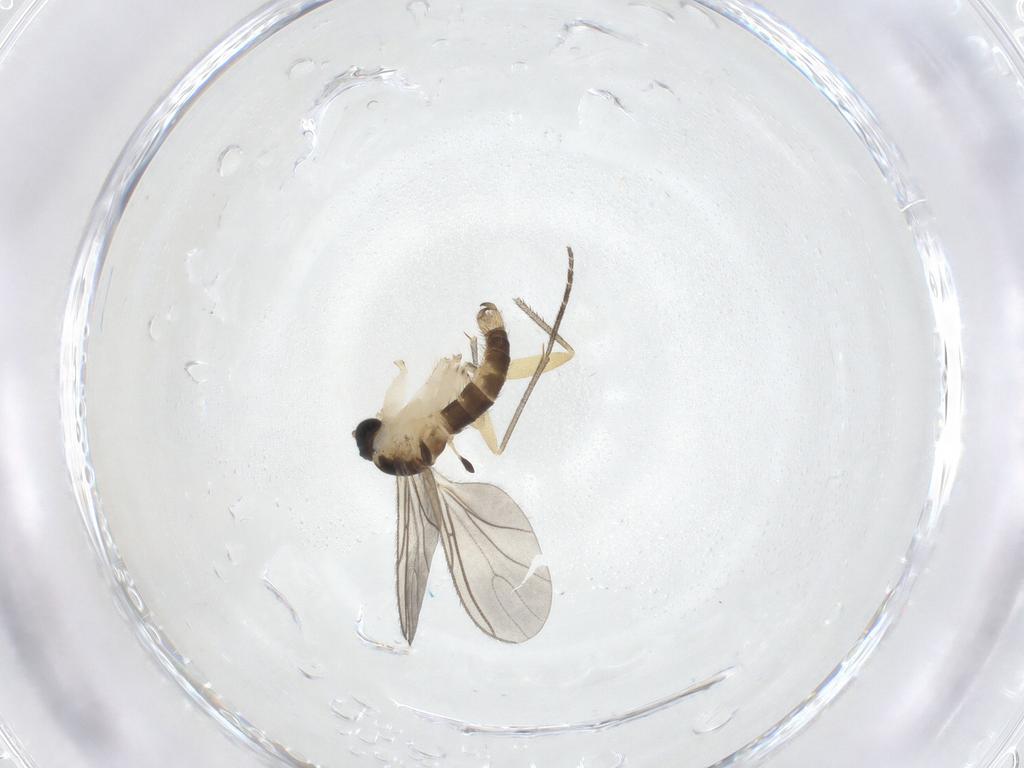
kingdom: Animalia
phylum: Arthropoda
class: Insecta
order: Diptera
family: Sciaridae
